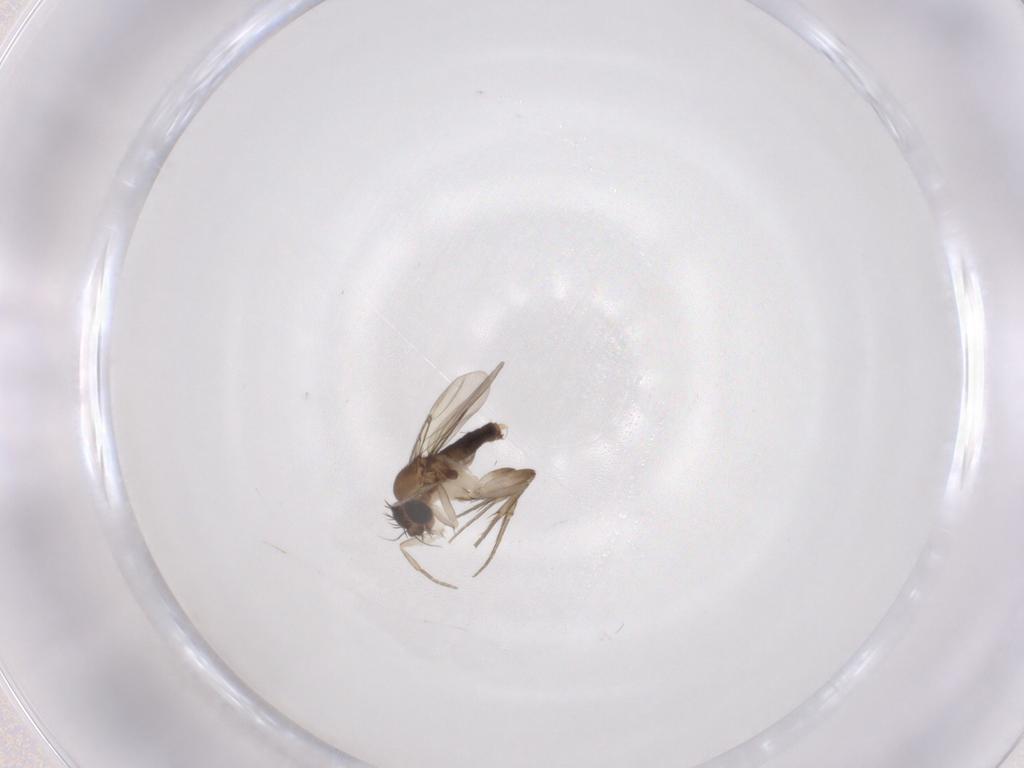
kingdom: Animalia
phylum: Arthropoda
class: Insecta
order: Diptera
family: Phoridae
